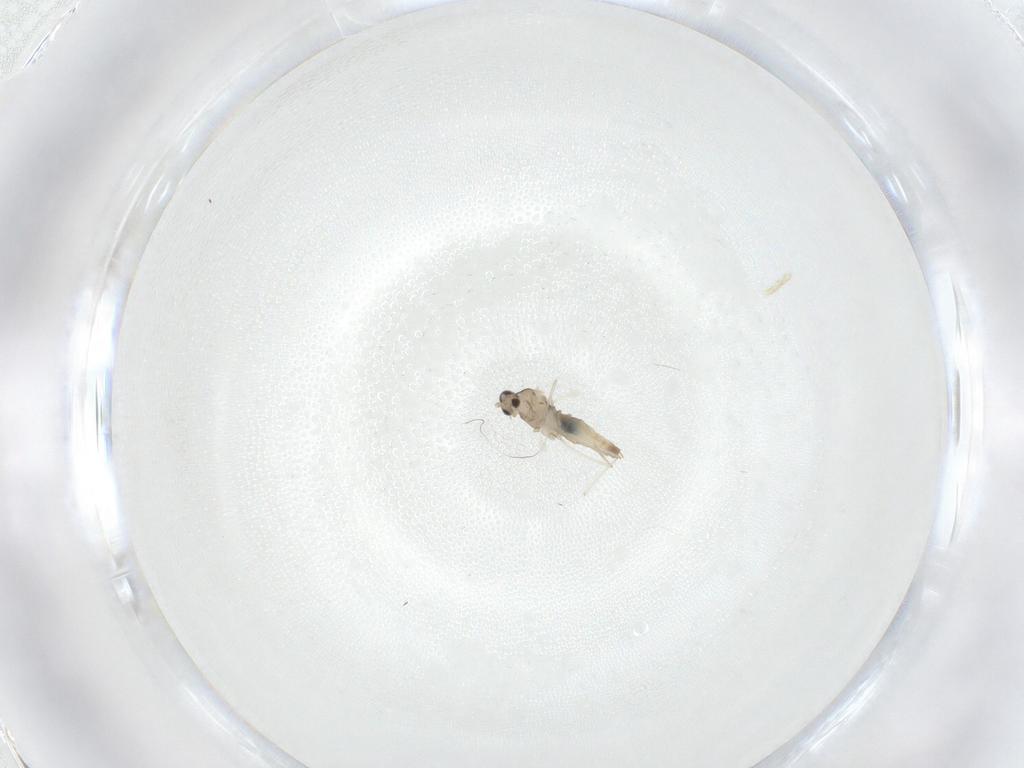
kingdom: Animalia
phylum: Arthropoda
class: Insecta
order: Diptera
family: Cecidomyiidae
